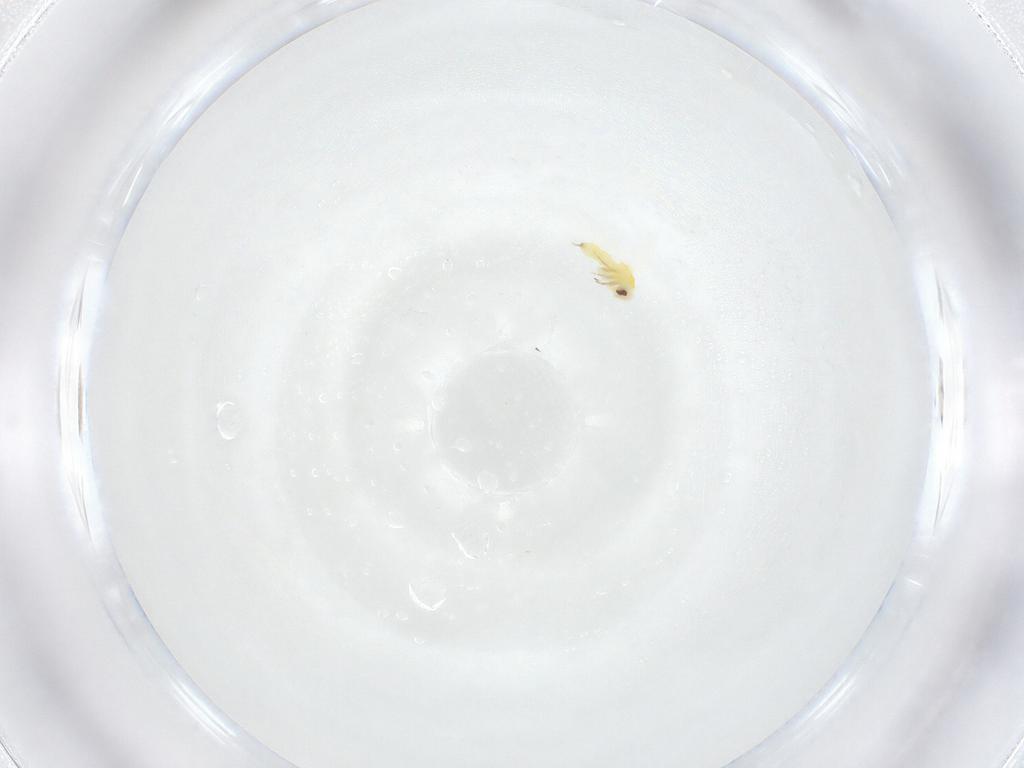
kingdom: Animalia
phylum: Arthropoda
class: Insecta
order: Hemiptera
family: Aleyrodidae
